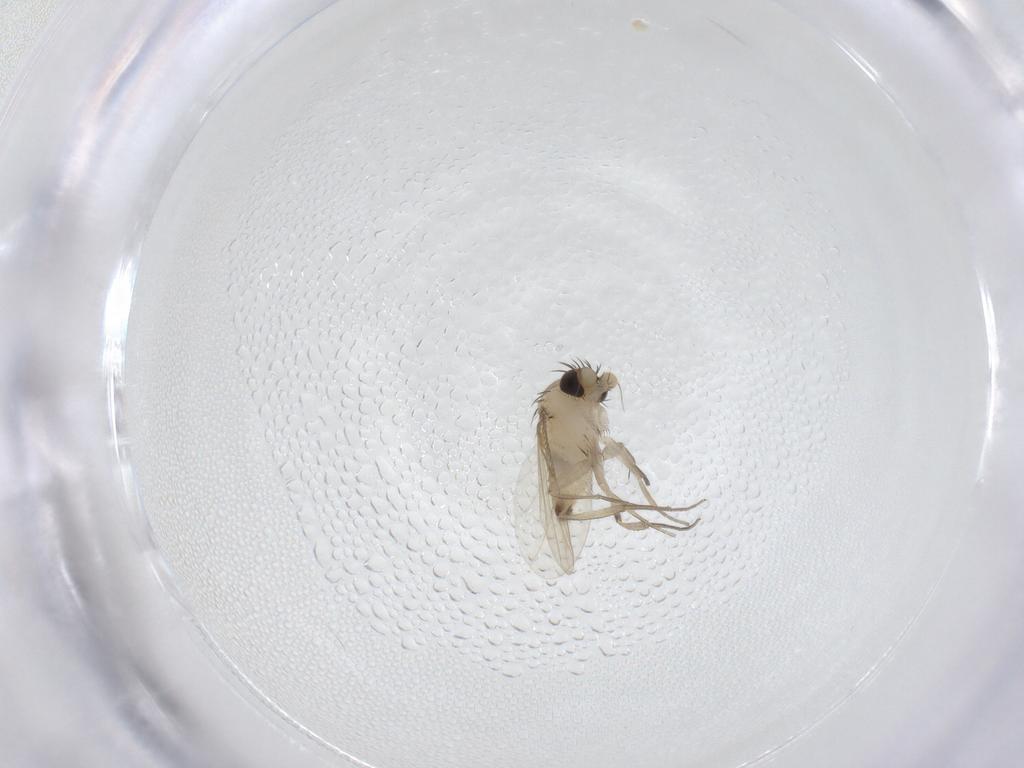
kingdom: Animalia
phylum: Arthropoda
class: Insecta
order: Diptera
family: Phoridae
